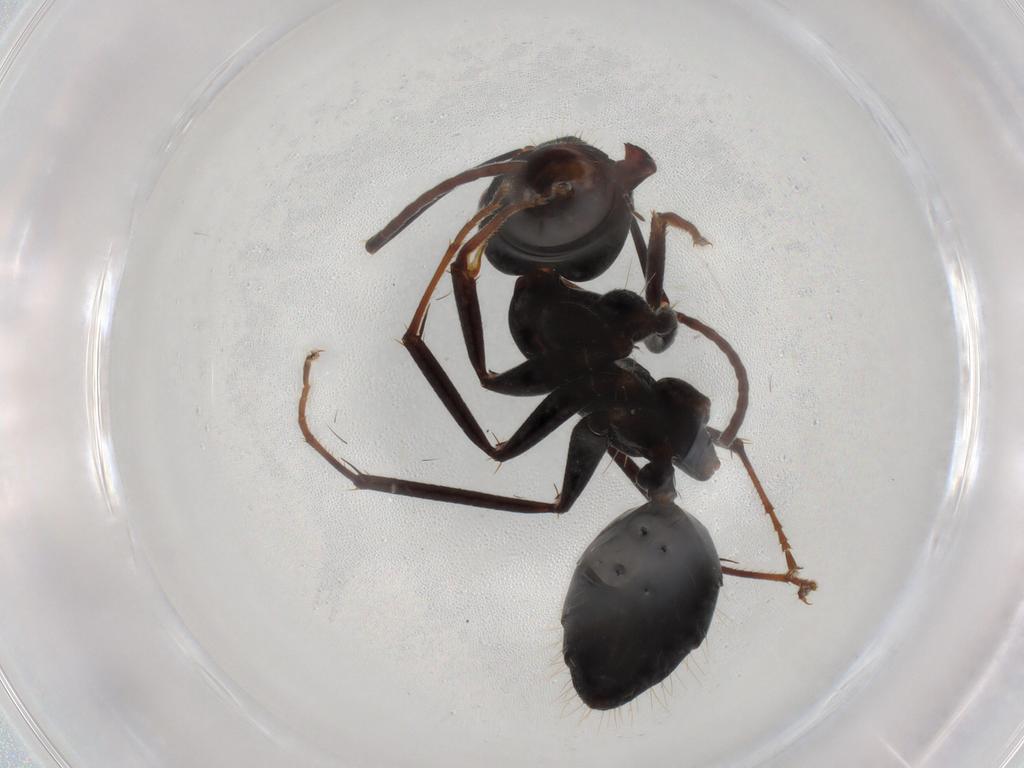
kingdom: Animalia
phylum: Arthropoda
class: Insecta
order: Hymenoptera
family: Formicidae
